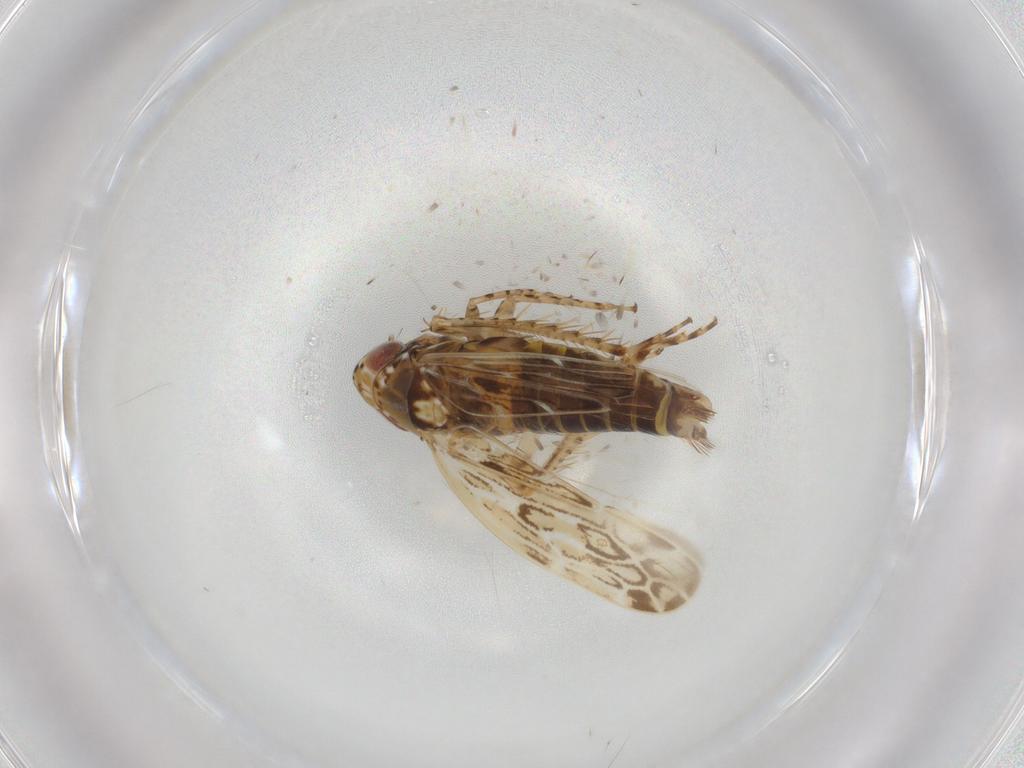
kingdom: Animalia
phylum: Arthropoda
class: Insecta
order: Hemiptera
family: Cicadellidae
